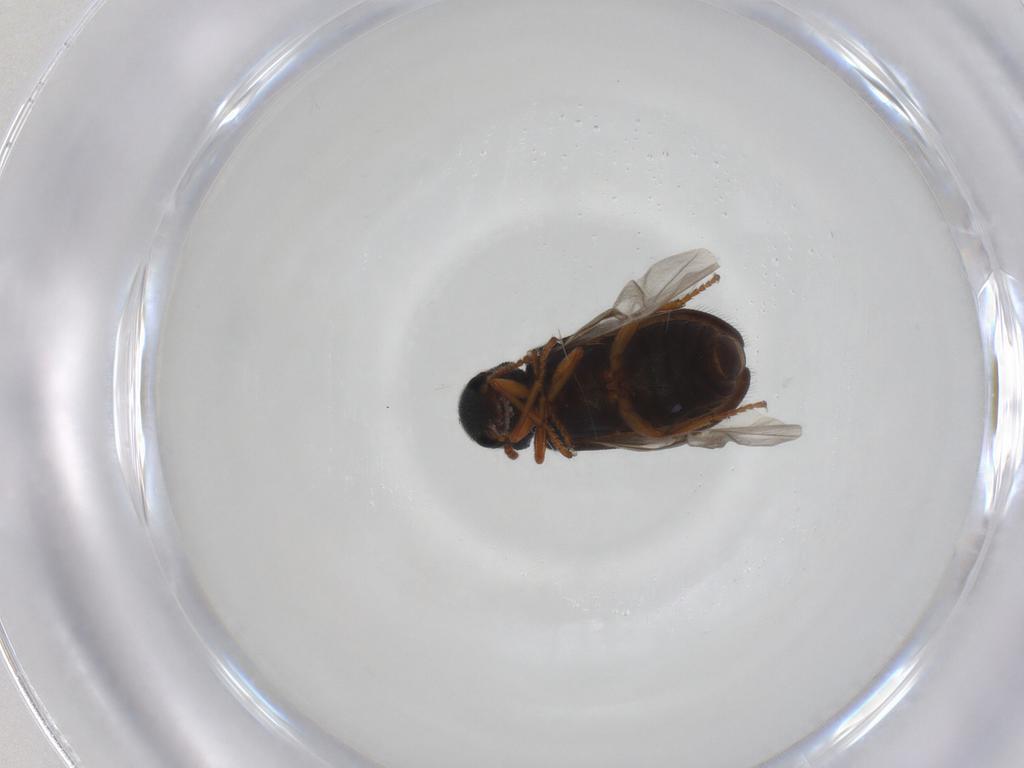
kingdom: Animalia
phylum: Arthropoda
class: Insecta
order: Coleoptera
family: Melyridae
